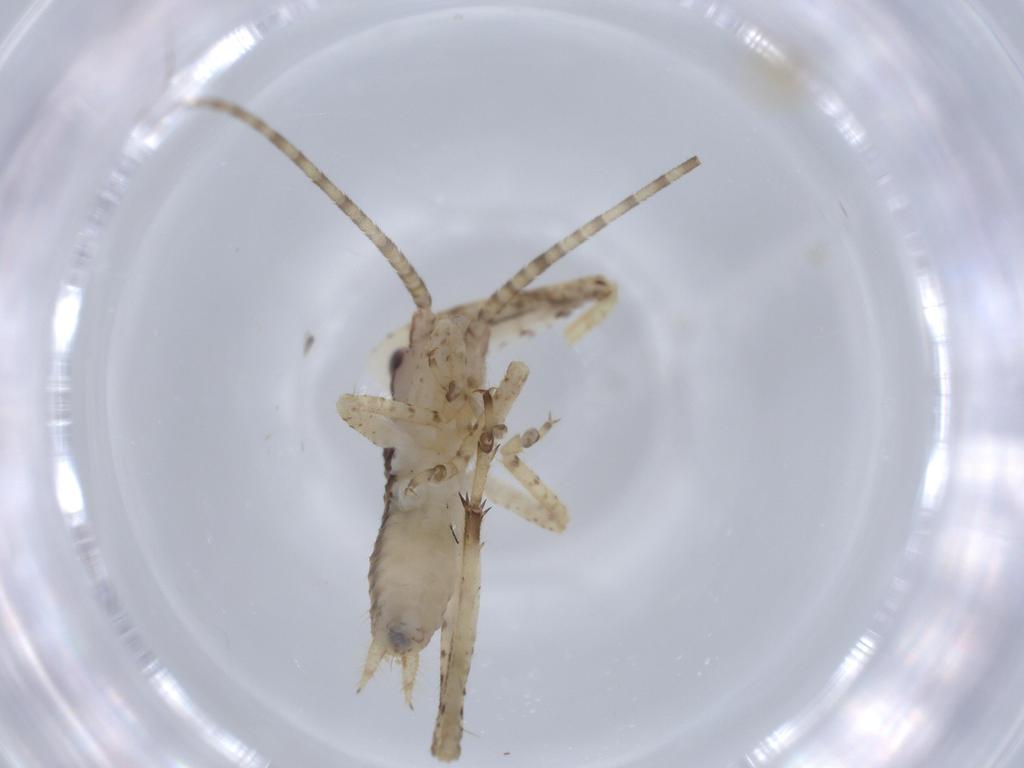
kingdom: Animalia
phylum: Arthropoda
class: Insecta
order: Orthoptera
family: Gryllidae
